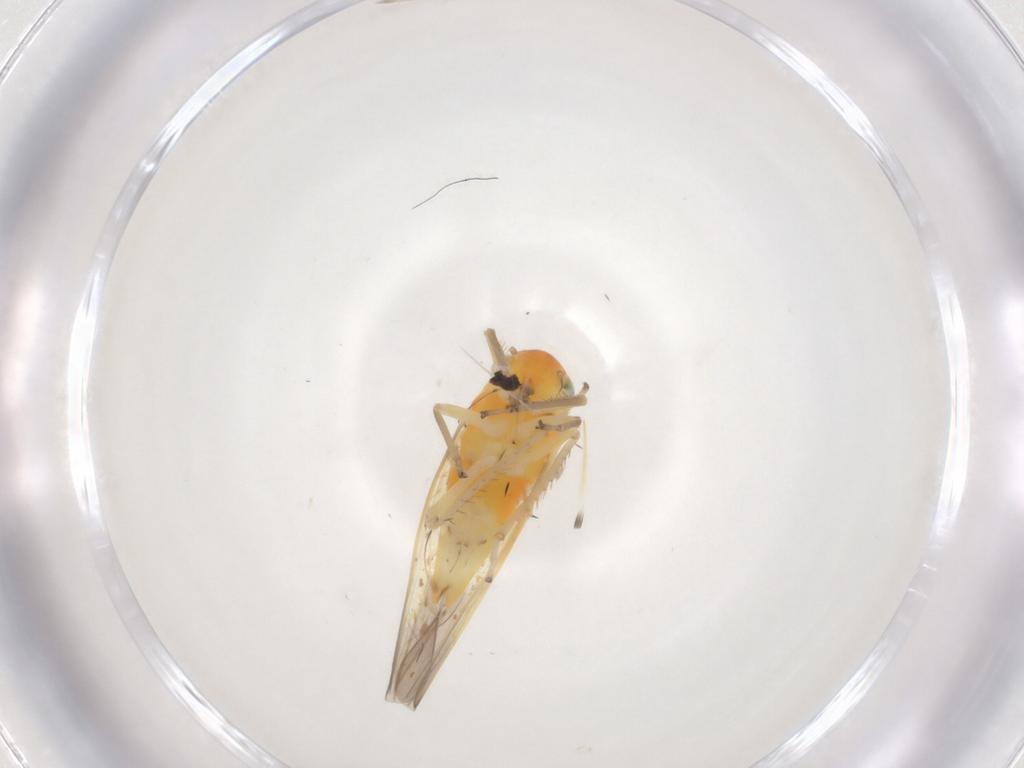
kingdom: Animalia
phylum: Arthropoda
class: Insecta
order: Hemiptera
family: Cicadellidae
